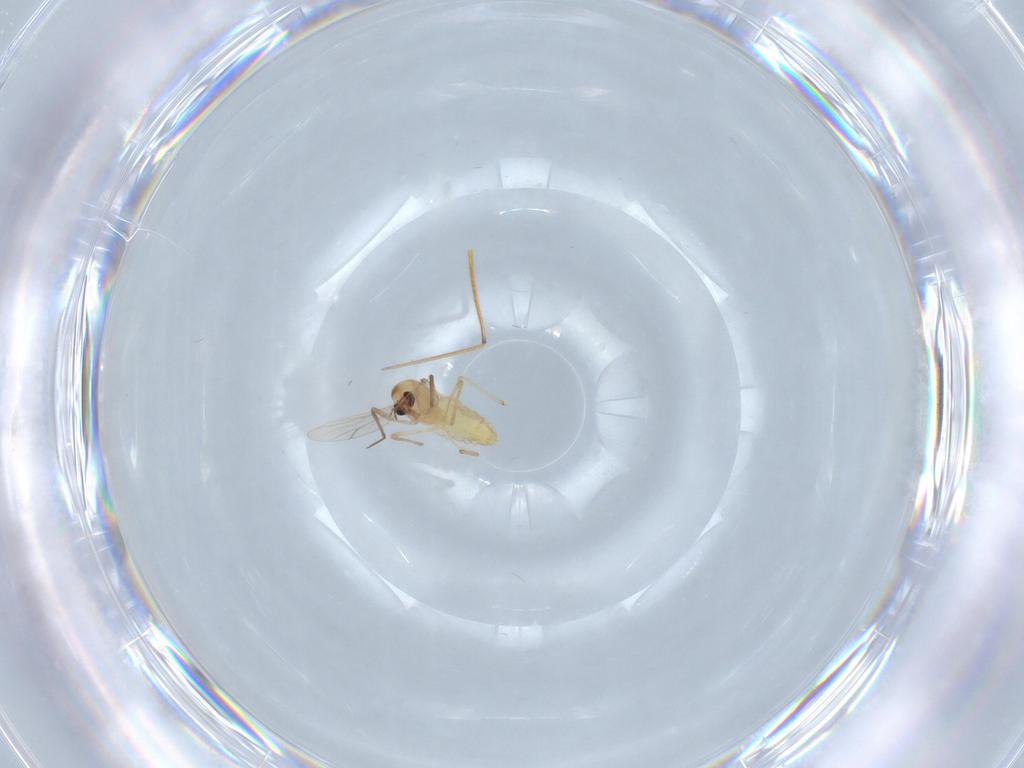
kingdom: Animalia
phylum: Arthropoda
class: Insecta
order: Diptera
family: Chironomidae
